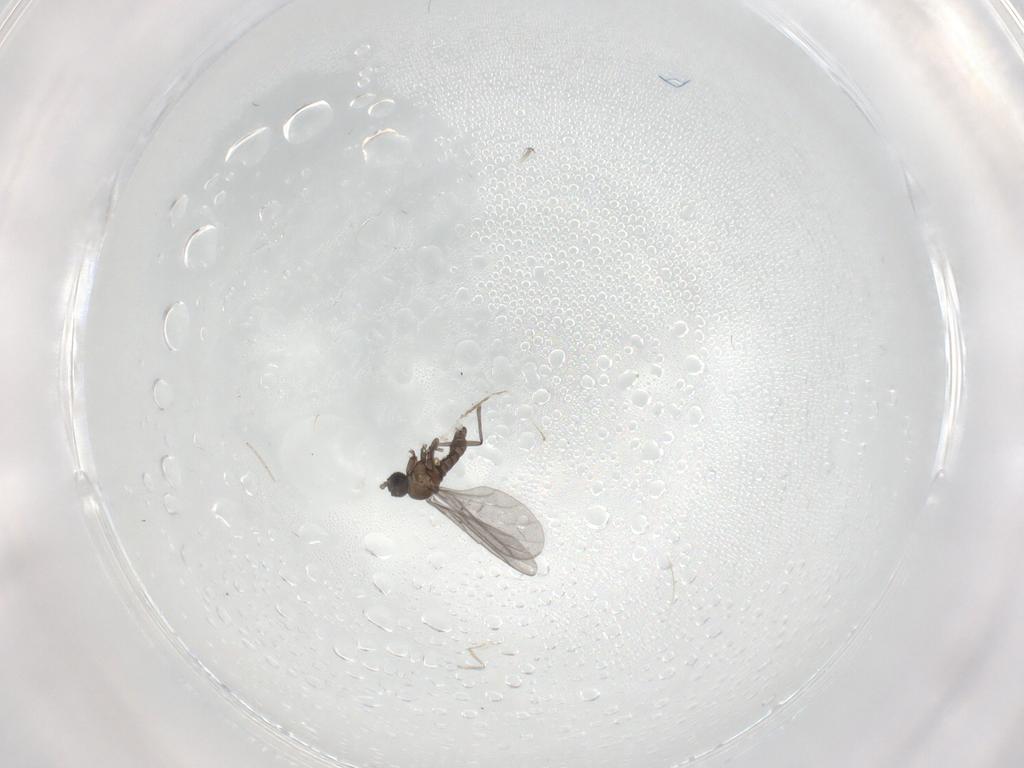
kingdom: Animalia
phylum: Arthropoda
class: Insecta
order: Diptera
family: Sciaridae
